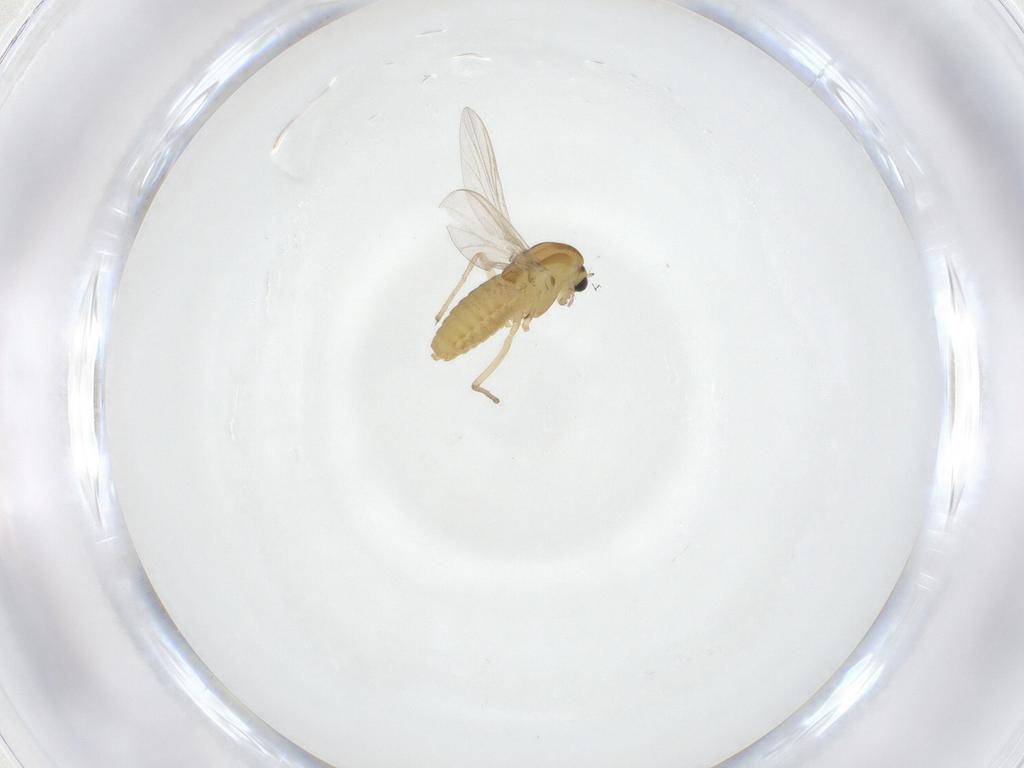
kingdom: Animalia
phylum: Arthropoda
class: Insecta
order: Diptera
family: Chironomidae
